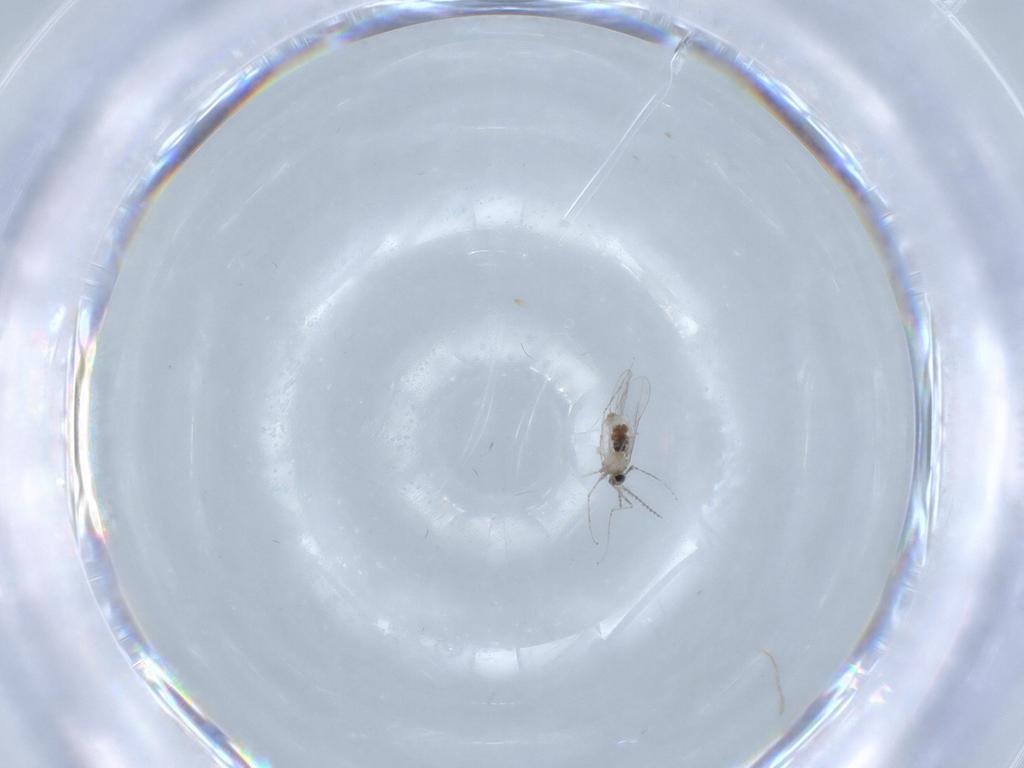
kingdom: Animalia
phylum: Arthropoda
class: Insecta
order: Diptera
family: Cecidomyiidae
